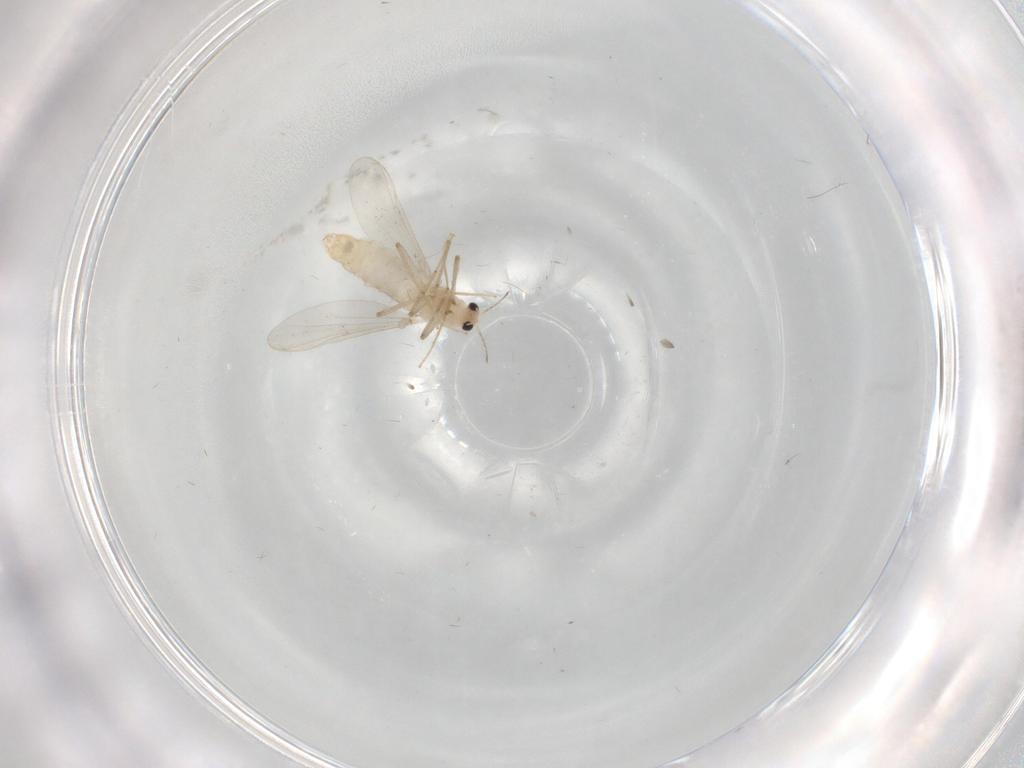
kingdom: Animalia
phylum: Arthropoda
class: Insecta
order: Diptera
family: Chironomidae
